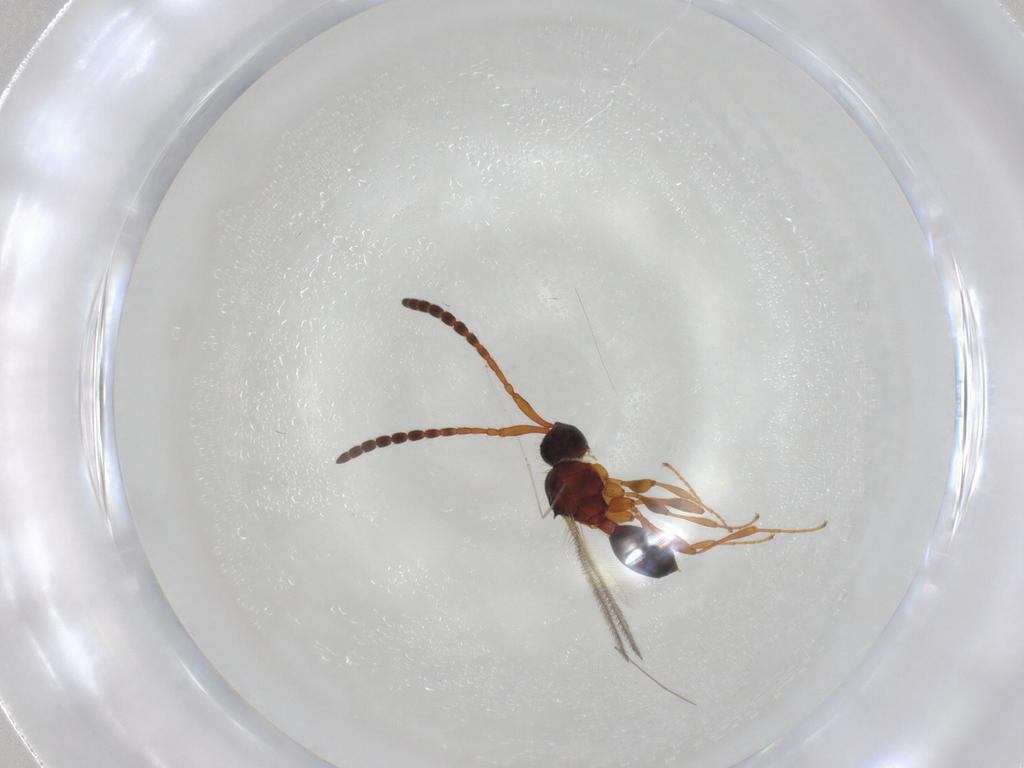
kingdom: Animalia
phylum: Arthropoda
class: Insecta
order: Hymenoptera
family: Diapriidae
